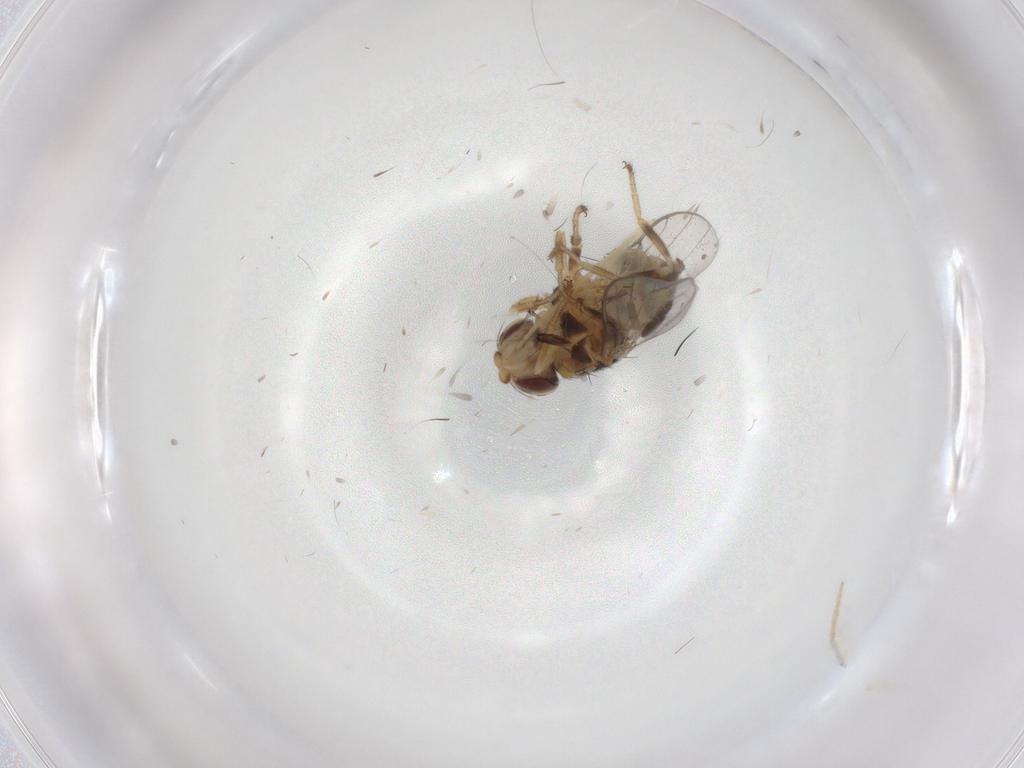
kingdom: Animalia
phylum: Arthropoda
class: Insecta
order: Diptera
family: Chloropidae
